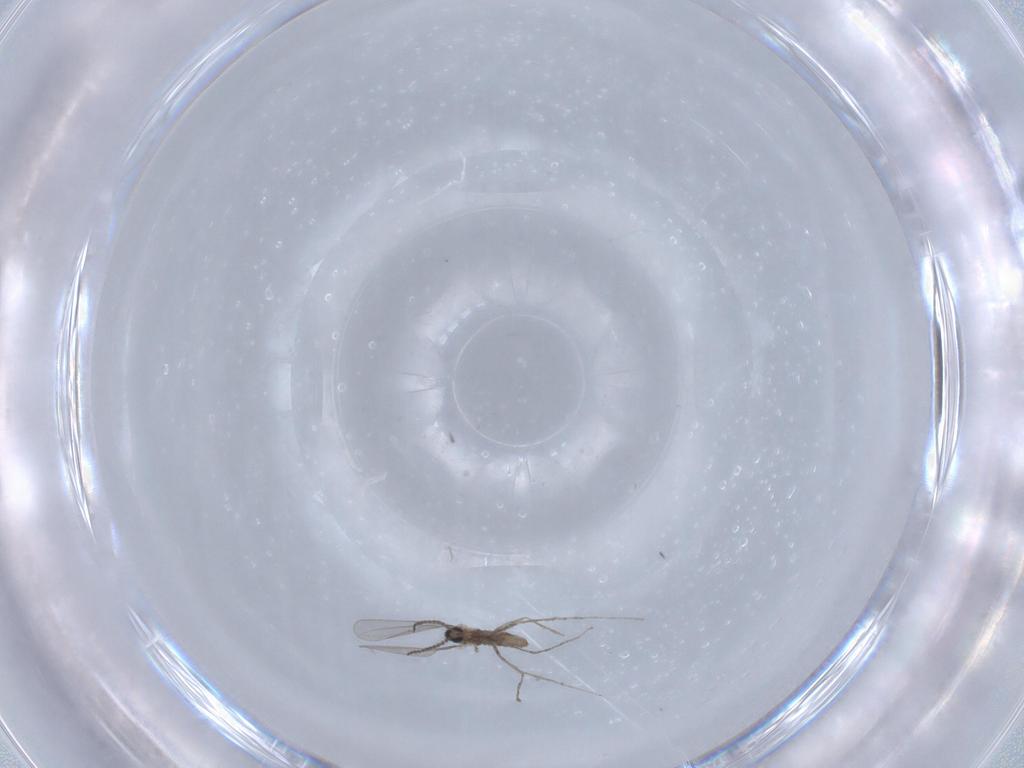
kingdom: Animalia
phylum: Arthropoda
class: Insecta
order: Diptera
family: Chironomidae
